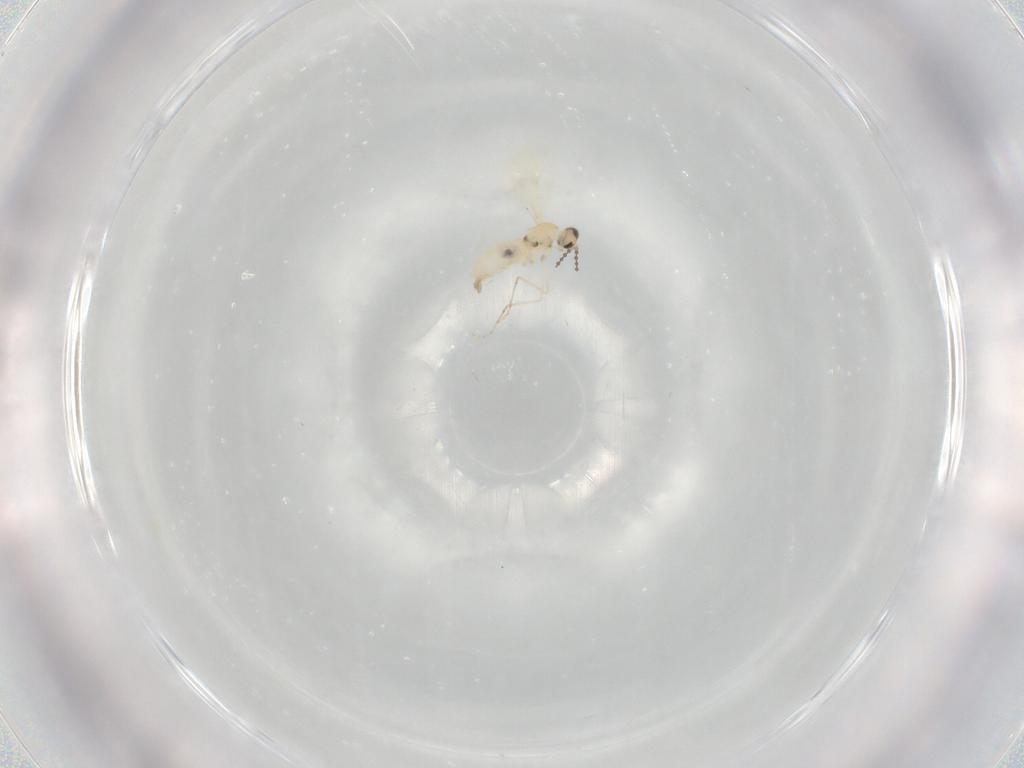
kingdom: Animalia
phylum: Arthropoda
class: Insecta
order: Diptera
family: Cecidomyiidae
